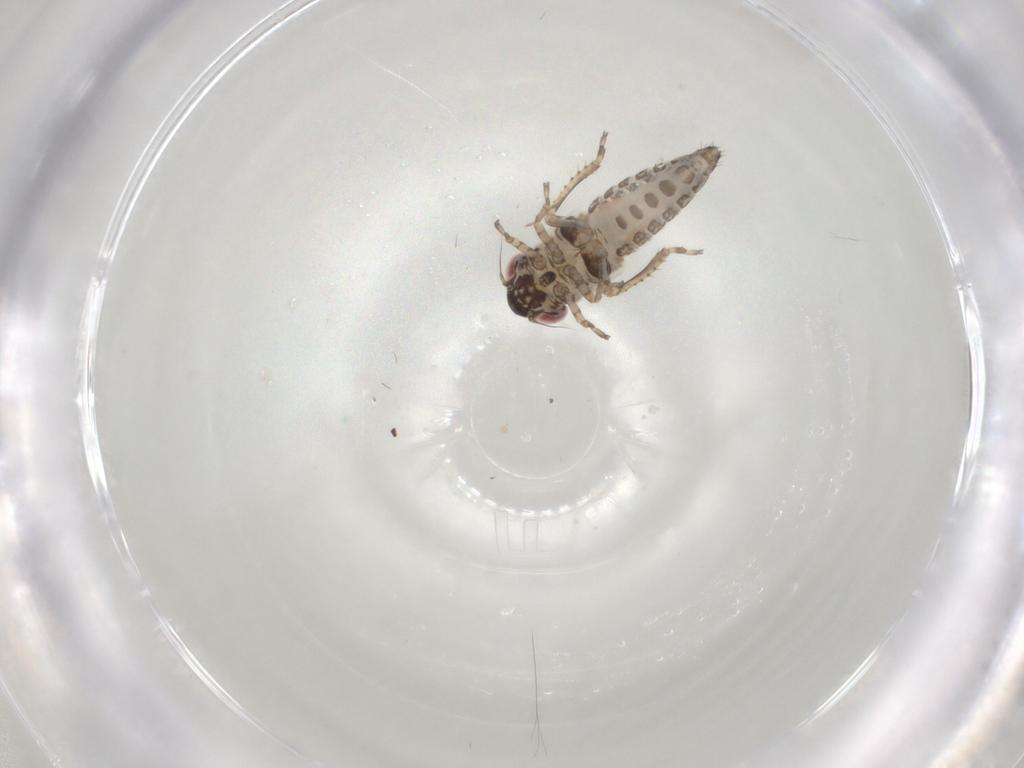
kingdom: Animalia
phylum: Arthropoda
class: Insecta
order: Hemiptera
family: Cicadellidae
